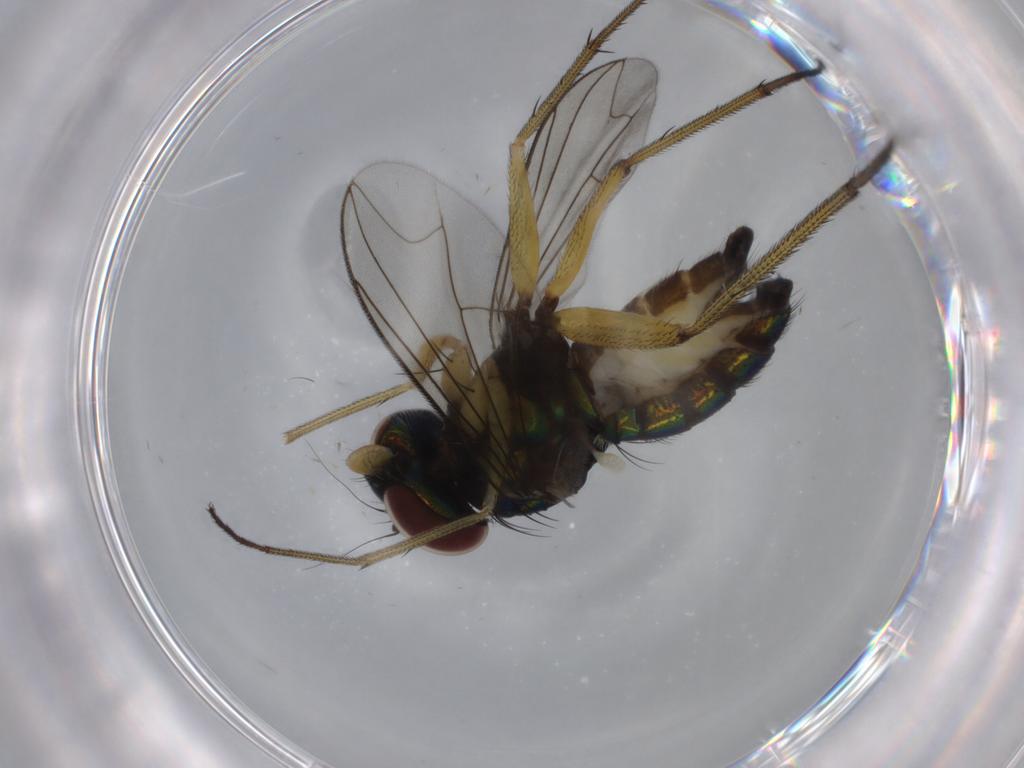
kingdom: Animalia
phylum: Arthropoda
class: Insecta
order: Diptera
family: Dolichopodidae
